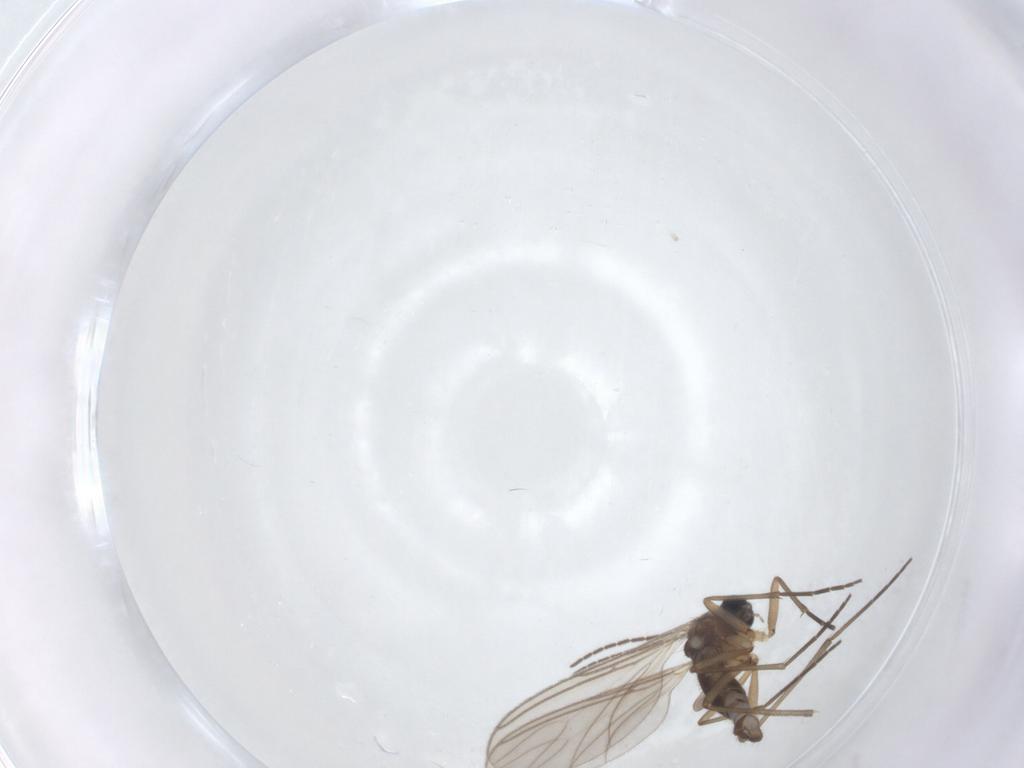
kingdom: Animalia
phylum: Arthropoda
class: Insecta
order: Diptera
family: Sciaridae
